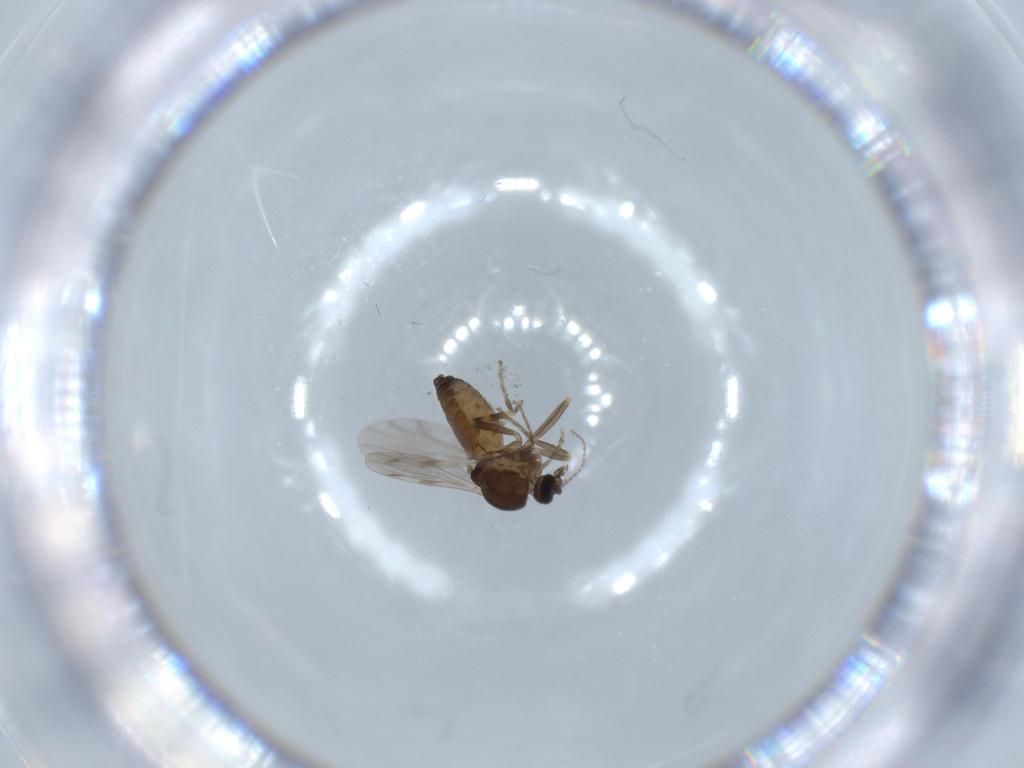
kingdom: Animalia
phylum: Arthropoda
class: Insecta
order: Diptera
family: Ceratopogonidae
